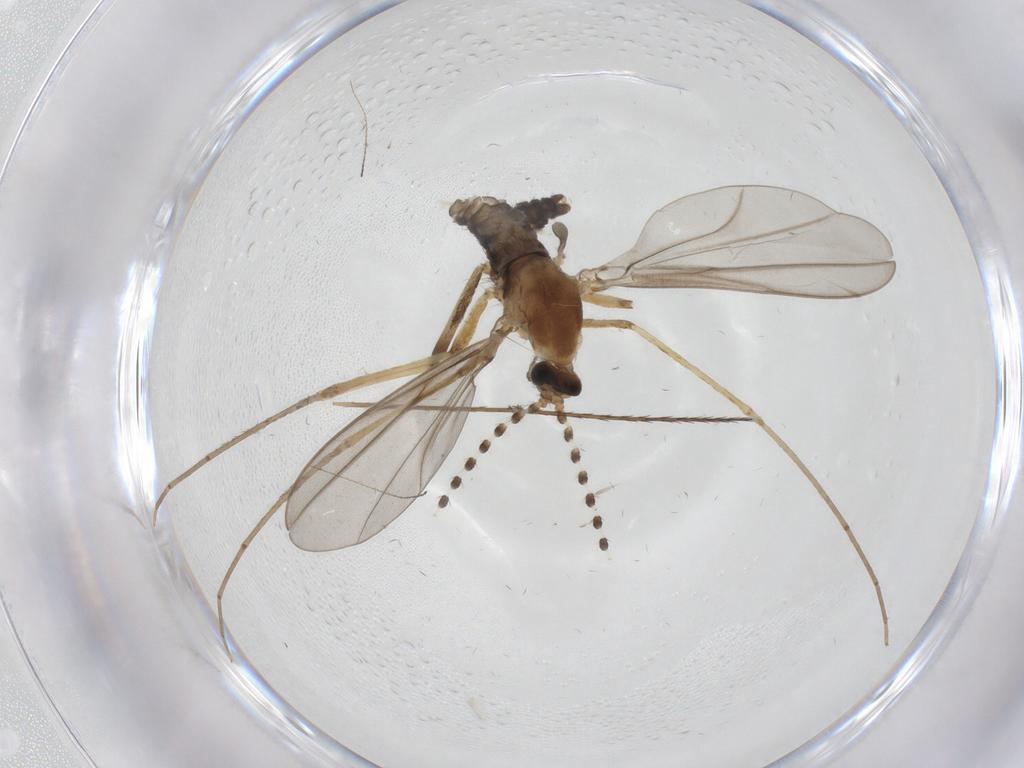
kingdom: Animalia
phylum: Arthropoda
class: Insecta
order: Diptera
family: Cecidomyiidae
